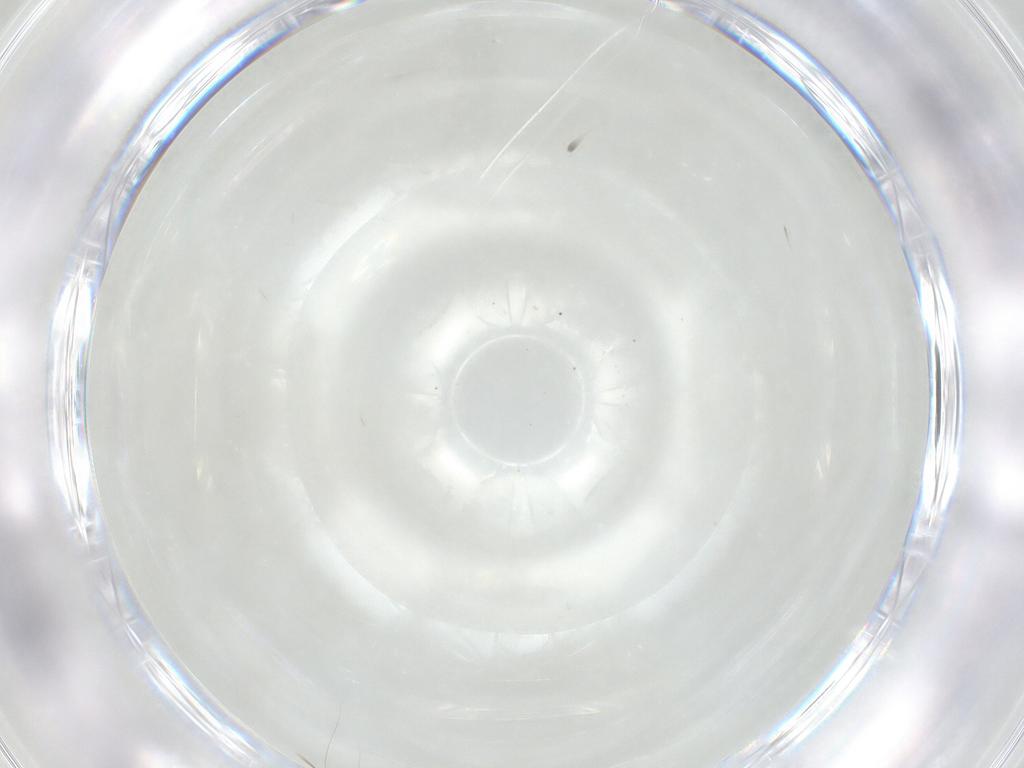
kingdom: Animalia
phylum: Arthropoda
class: Collembola
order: Entomobryomorpha
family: Entomobryidae
